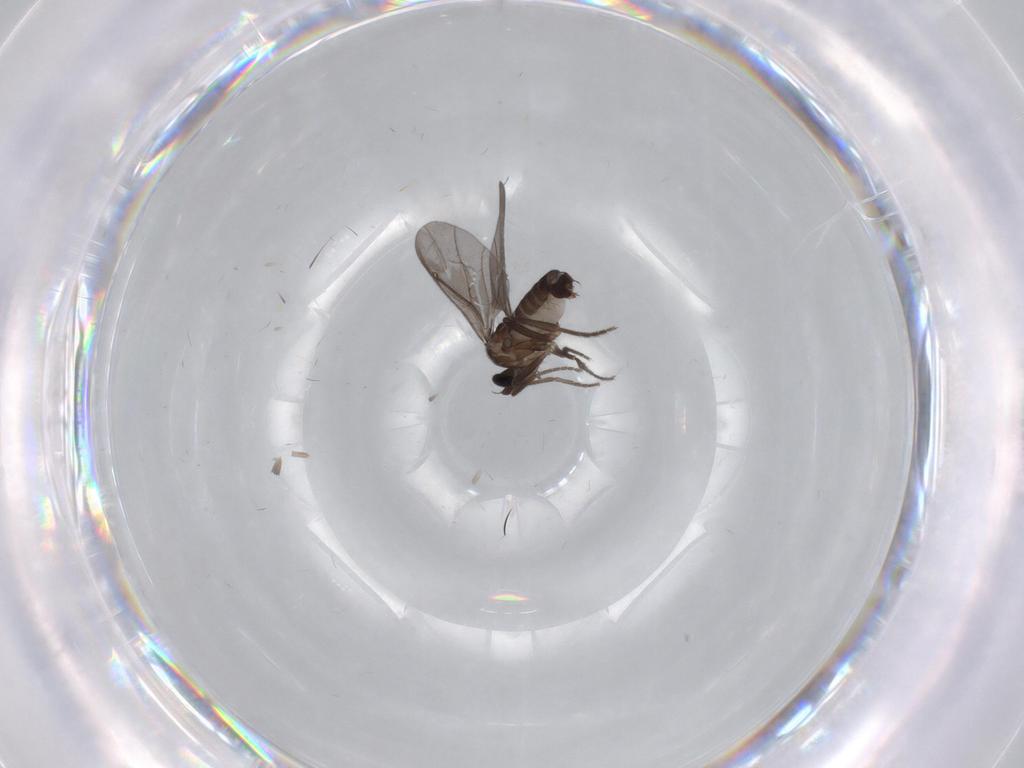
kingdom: Animalia
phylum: Arthropoda
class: Insecta
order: Diptera
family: Phoridae
